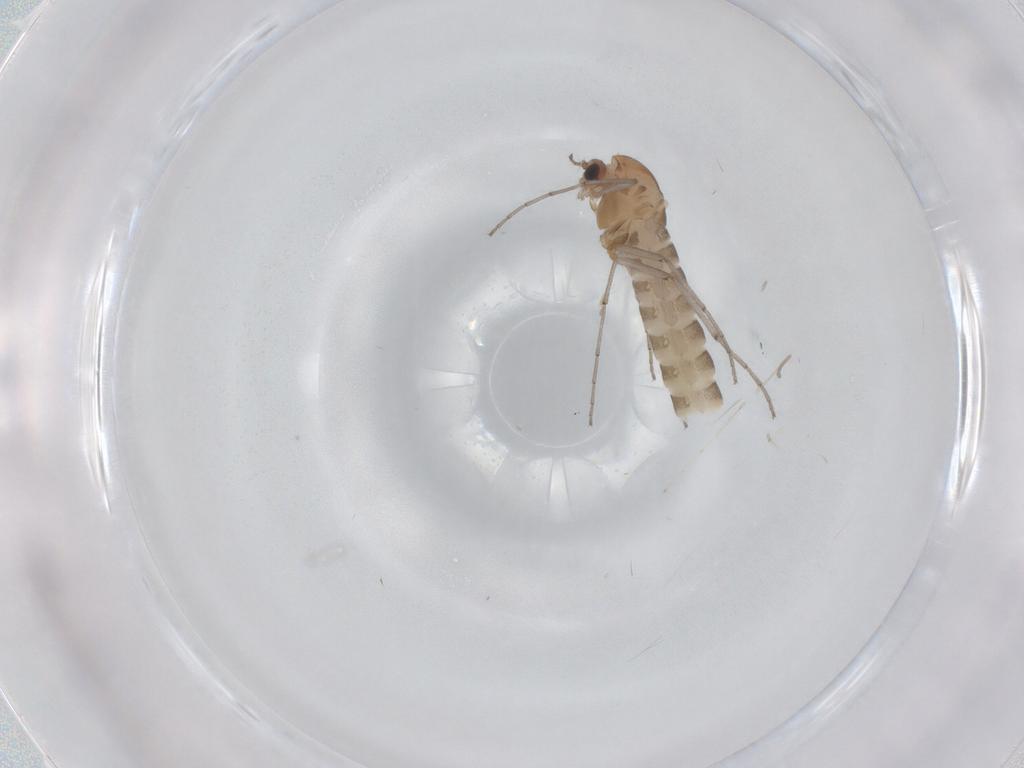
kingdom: Animalia
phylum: Arthropoda
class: Insecta
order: Diptera
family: Chironomidae
